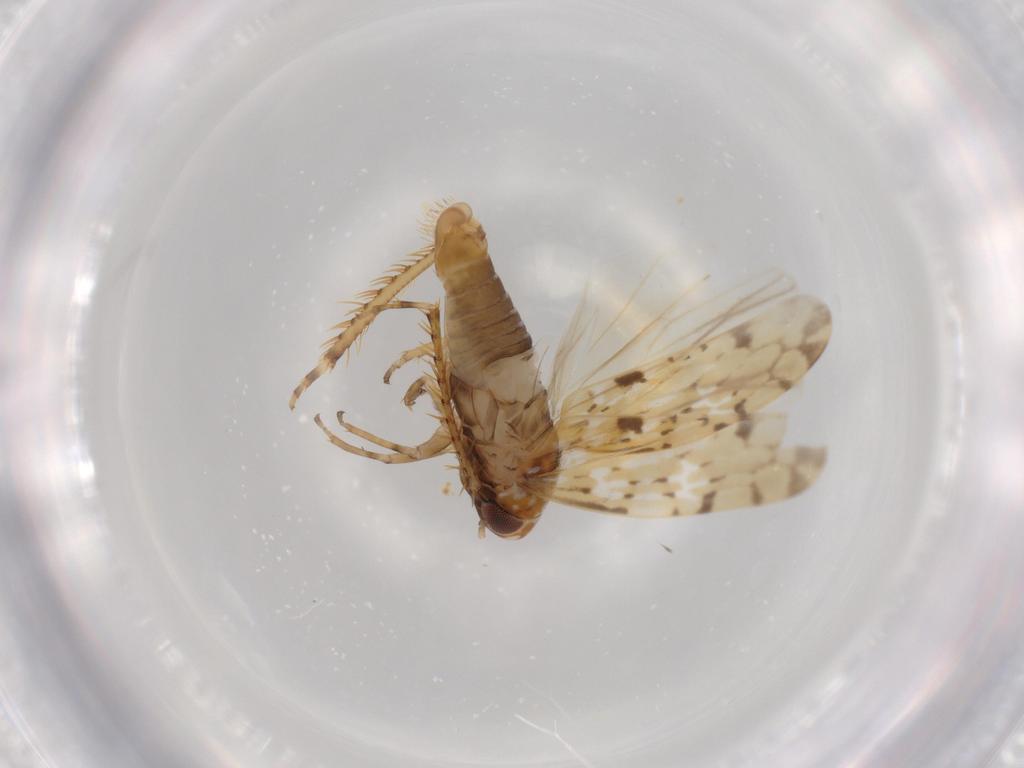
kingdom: Animalia
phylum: Arthropoda
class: Insecta
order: Hemiptera
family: Cicadellidae
